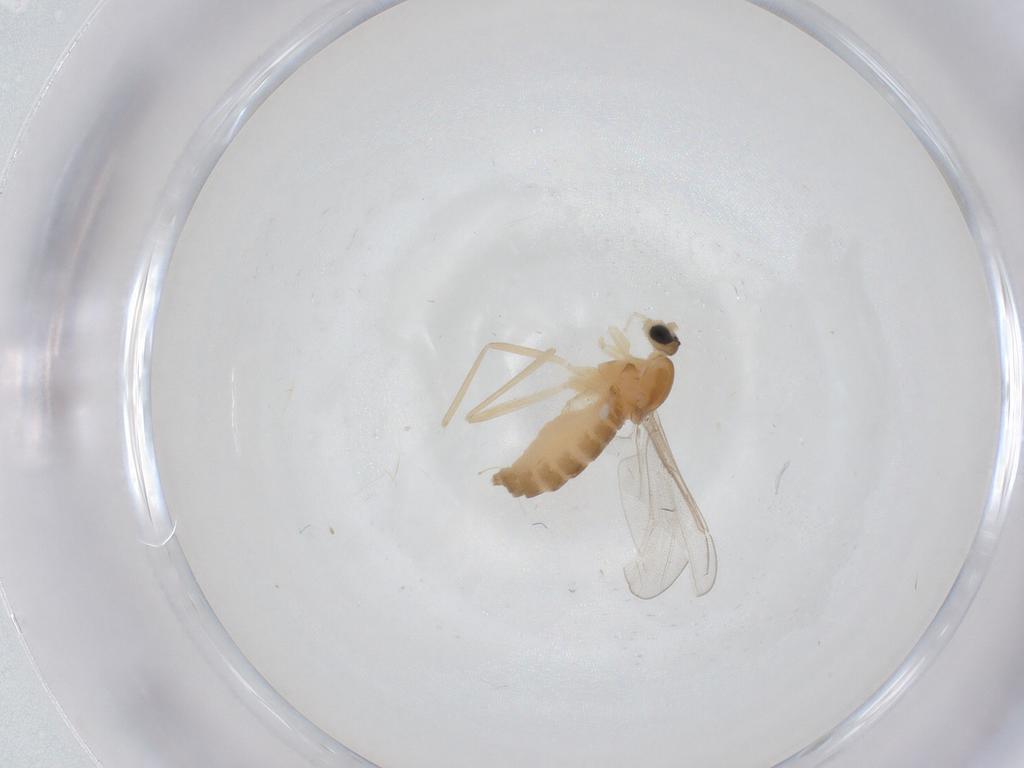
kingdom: Animalia
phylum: Arthropoda
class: Insecta
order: Diptera
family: Cecidomyiidae
